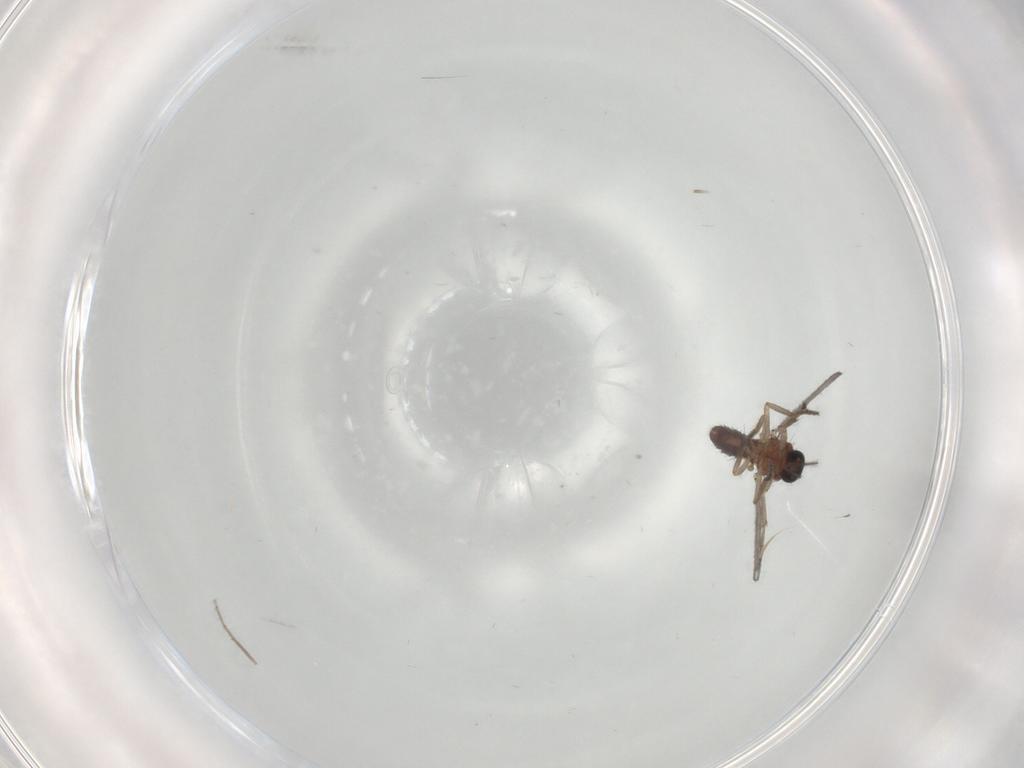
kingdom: Animalia
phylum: Arthropoda
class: Insecta
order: Diptera
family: Ceratopogonidae
